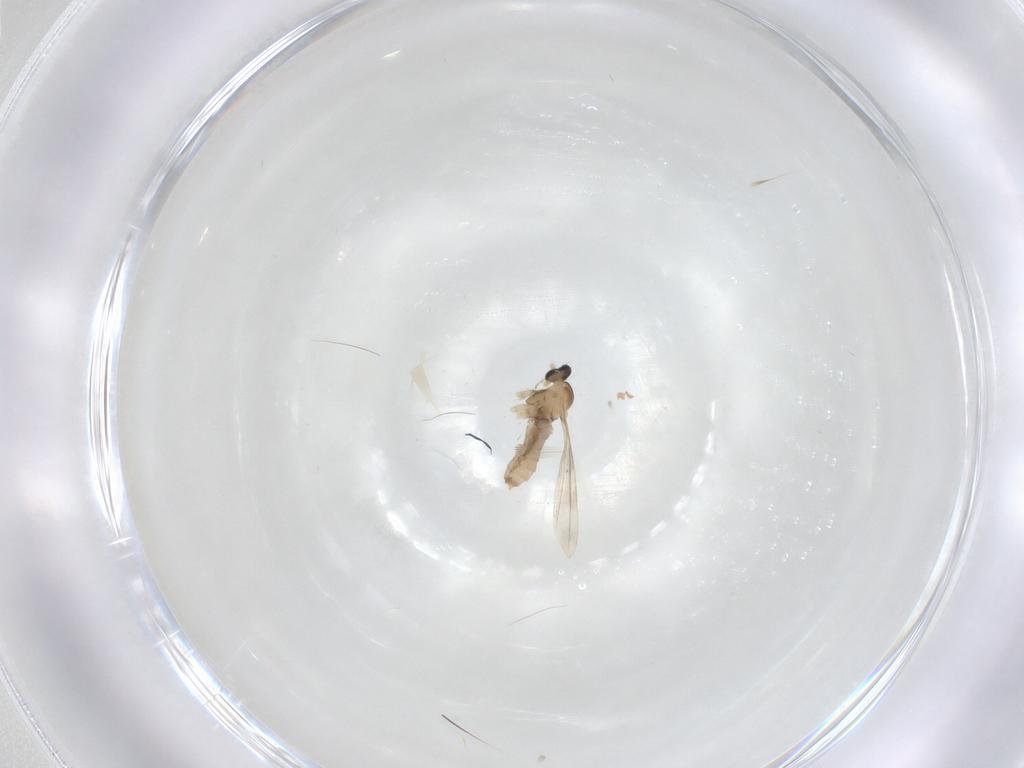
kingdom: Animalia
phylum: Arthropoda
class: Insecta
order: Diptera
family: Cecidomyiidae
